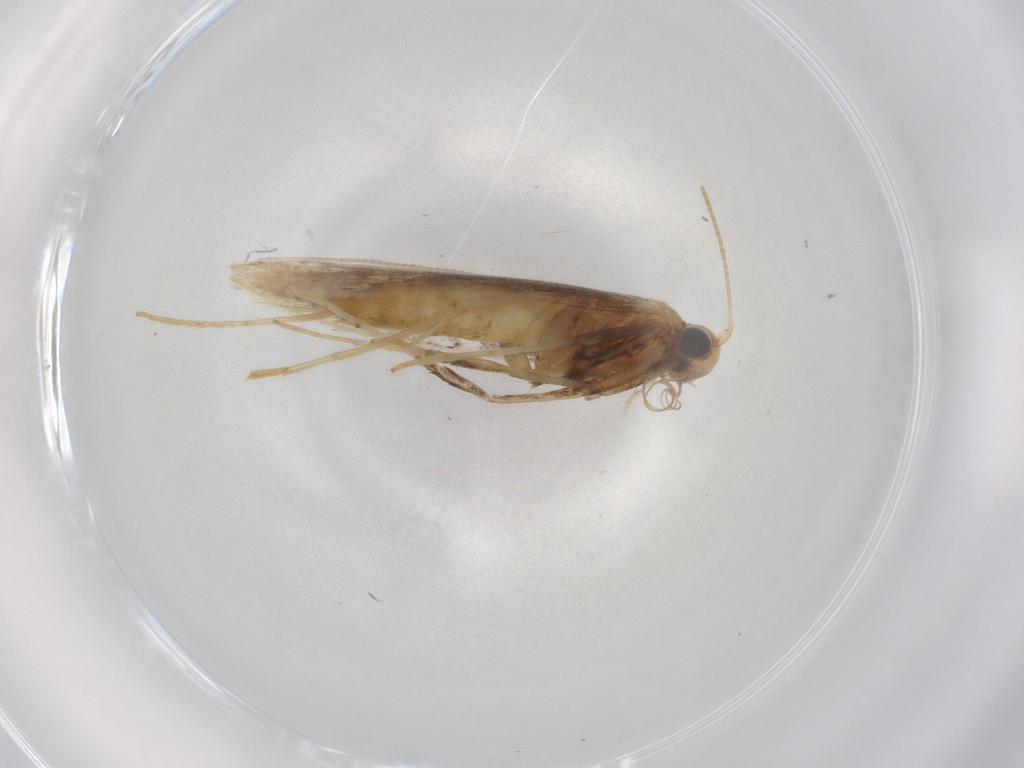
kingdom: Animalia
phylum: Arthropoda
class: Insecta
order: Lepidoptera
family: Gracillariidae
